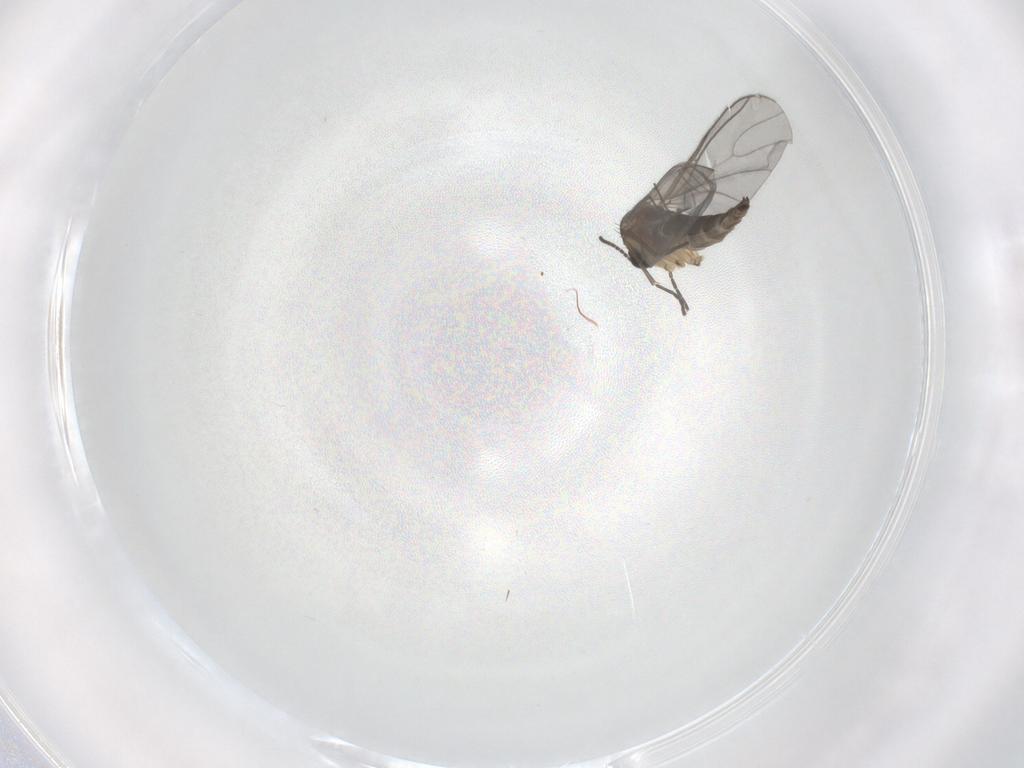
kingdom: Animalia
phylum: Arthropoda
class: Insecta
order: Diptera
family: Sciaridae
